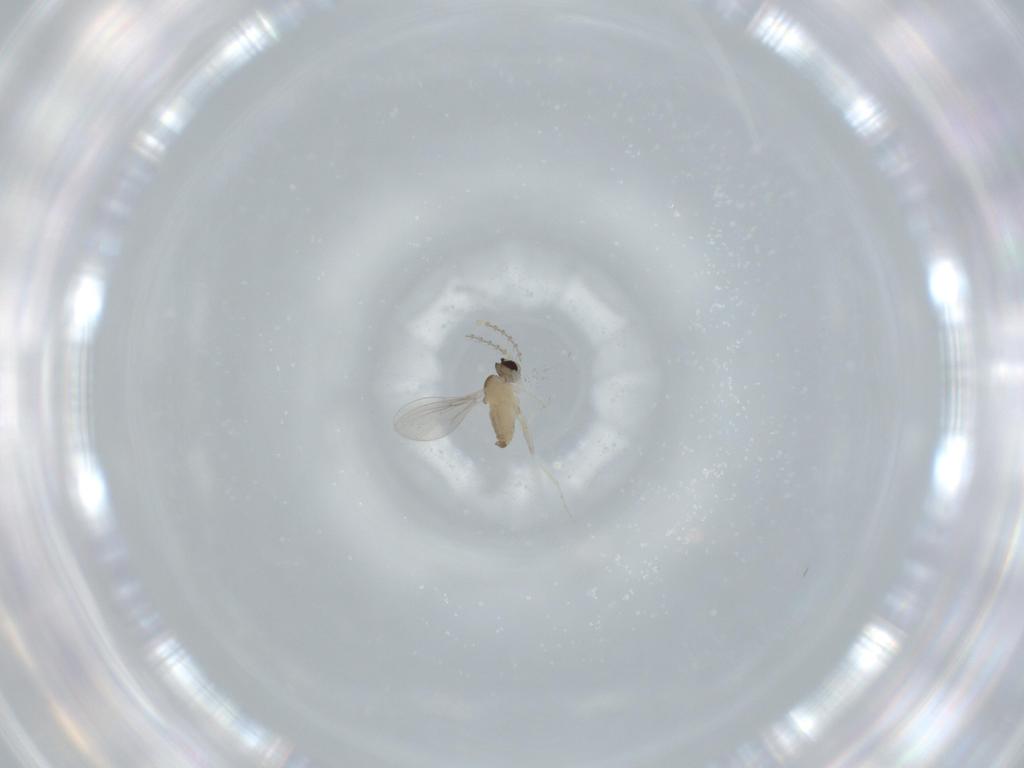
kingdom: Animalia
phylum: Arthropoda
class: Insecta
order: Diptera
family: Cecidomyiidae
